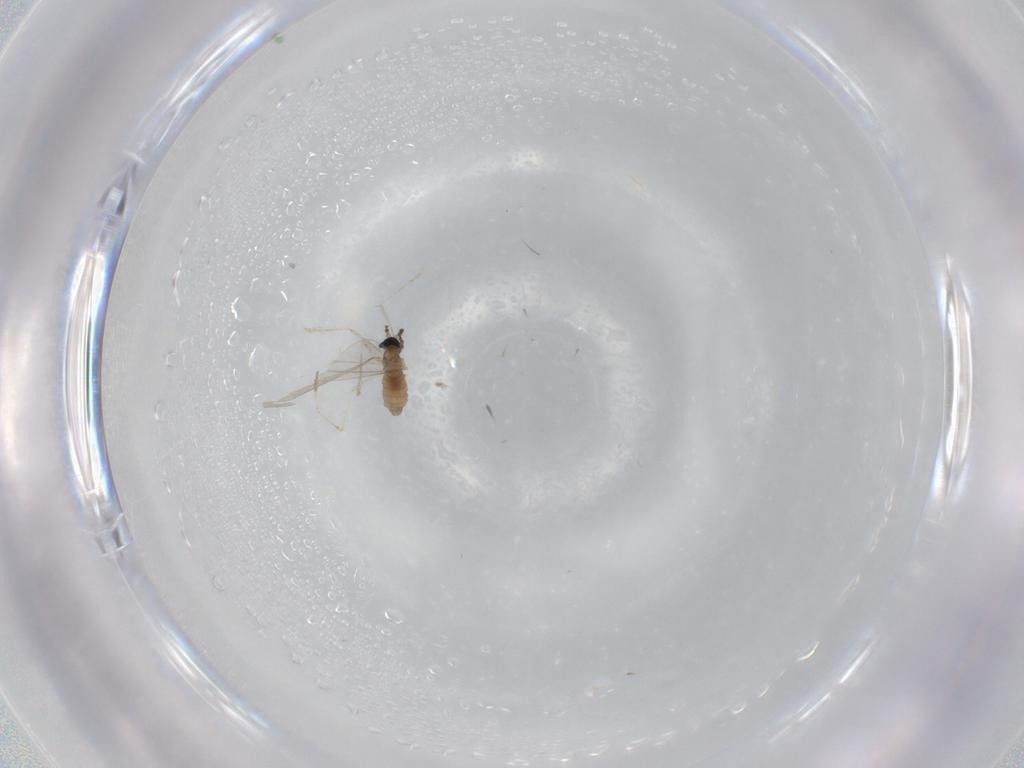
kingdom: Animalia
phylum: Arthropoda
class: Insecta
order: Diptera
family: Cecidomyiidae
